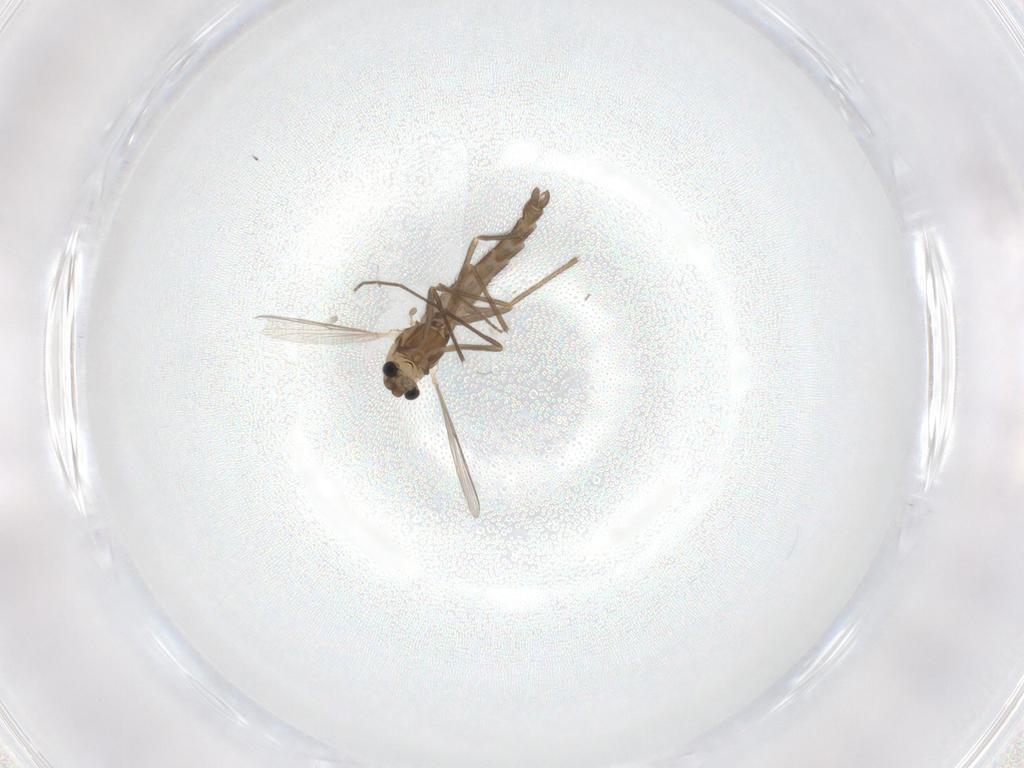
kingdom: Animalia
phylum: Arthropoda
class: Insecta
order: Diptera
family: Chironomidae
